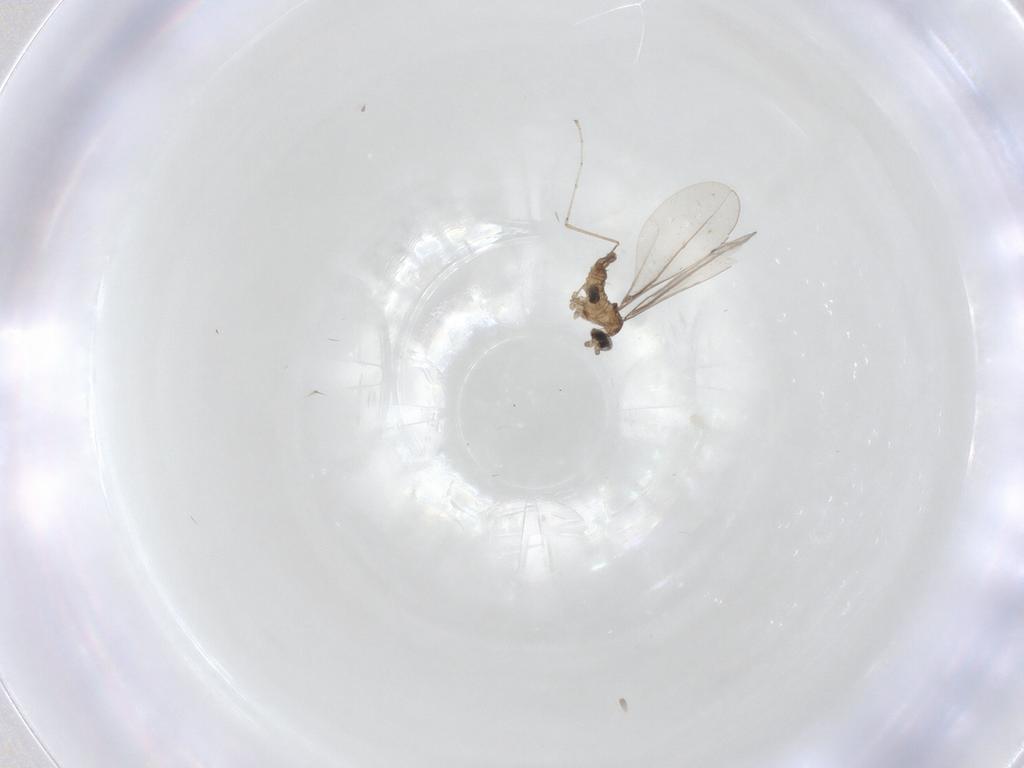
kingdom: Animalia
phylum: Arthropoda
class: Insecta
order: Diptera
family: Cecidomyiidae
